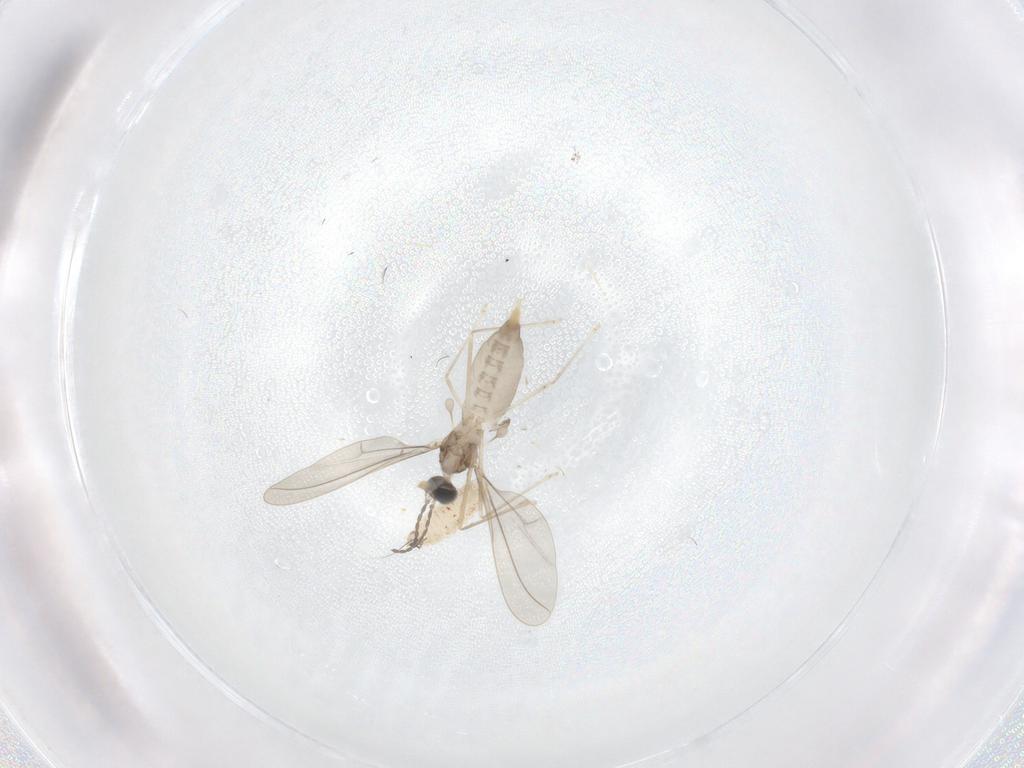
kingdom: Animalia
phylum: Arthropoda
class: Insecta
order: Diptera
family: Cecidomyiidae
